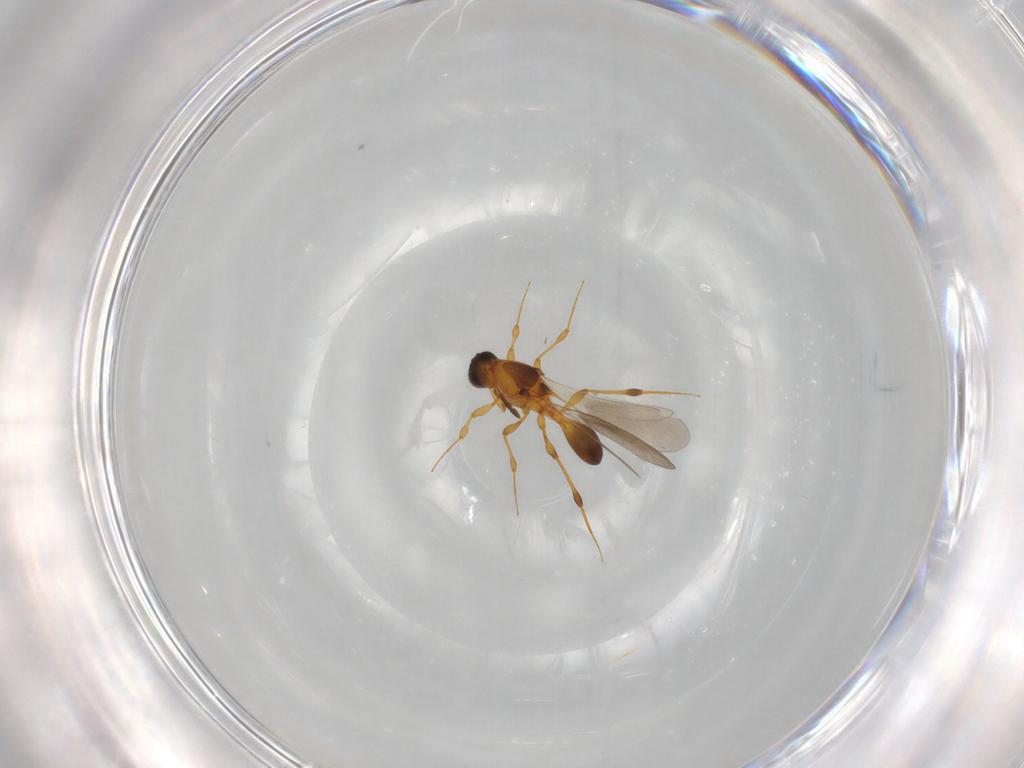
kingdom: Animalia
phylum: Arthropoda
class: Insecta
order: Hymenoptera
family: Platygastridae
